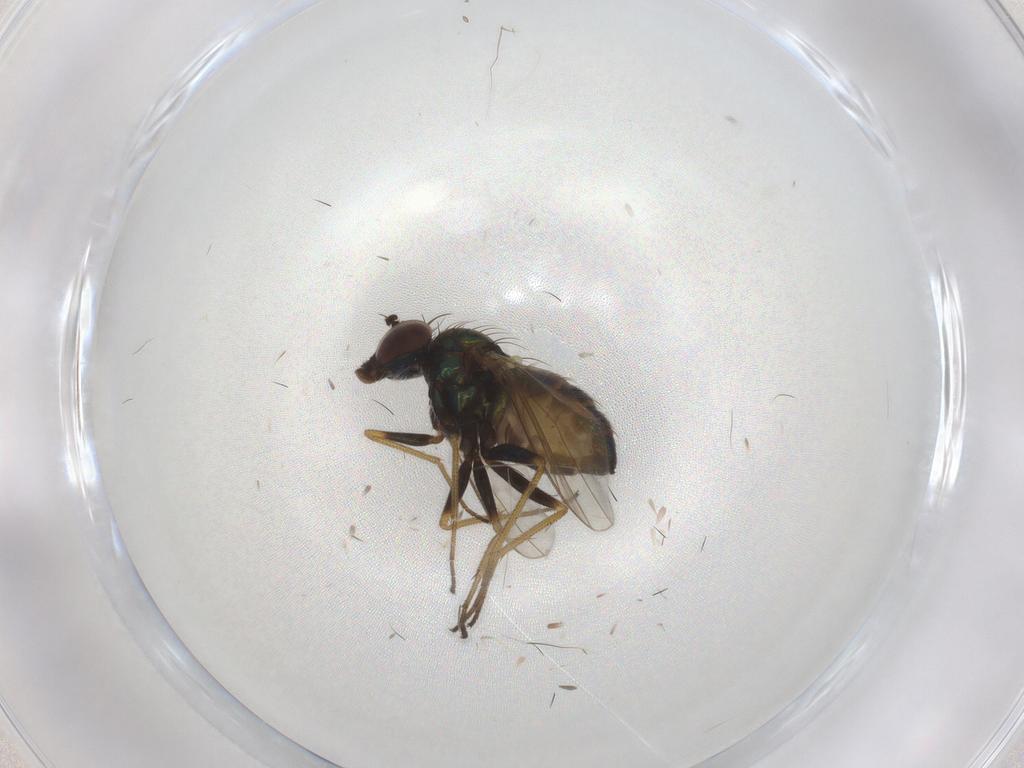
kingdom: Animalia
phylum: Arthropoda
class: Insecta
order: Diptera
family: Dolichopodidae
